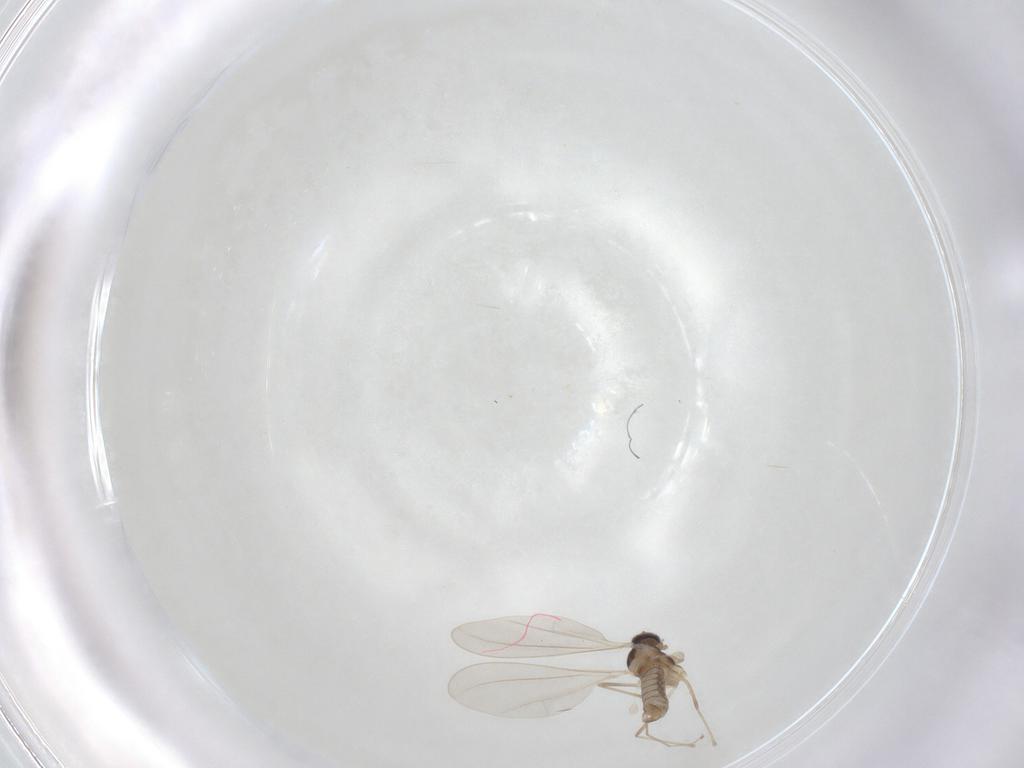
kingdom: Animalia
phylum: Arthropoda
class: Insecta
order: Diptera
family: Cecidomyiidae
